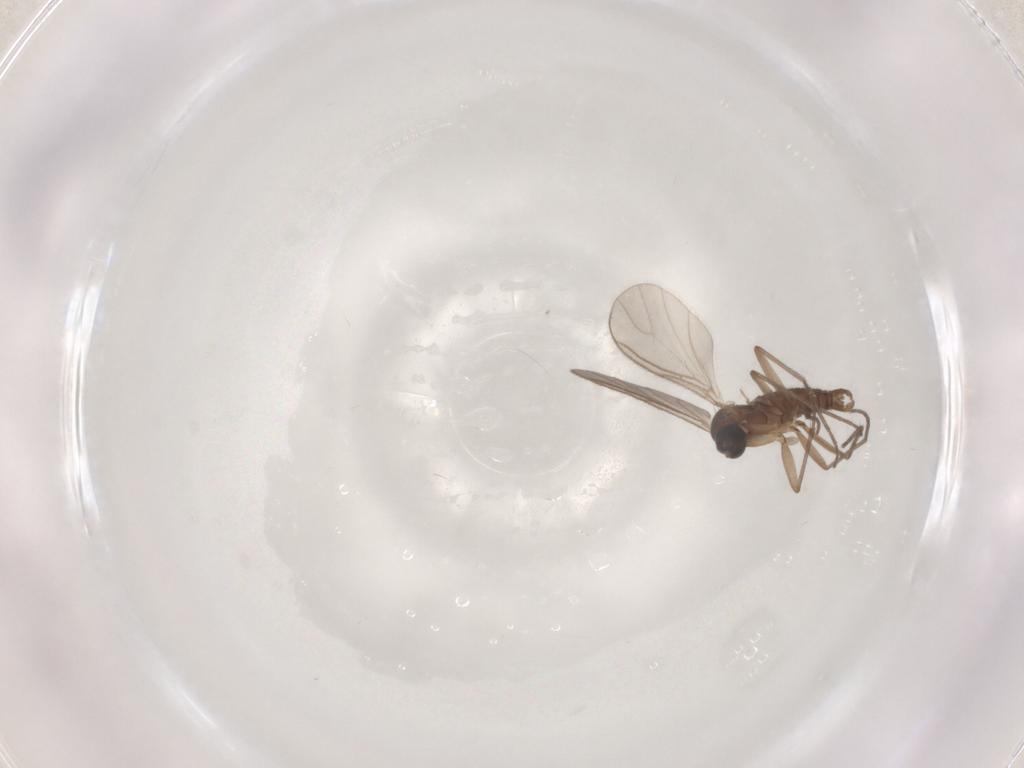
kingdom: Animalia
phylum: Arthropoda
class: Insecta
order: Diptera
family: Sciaridae
